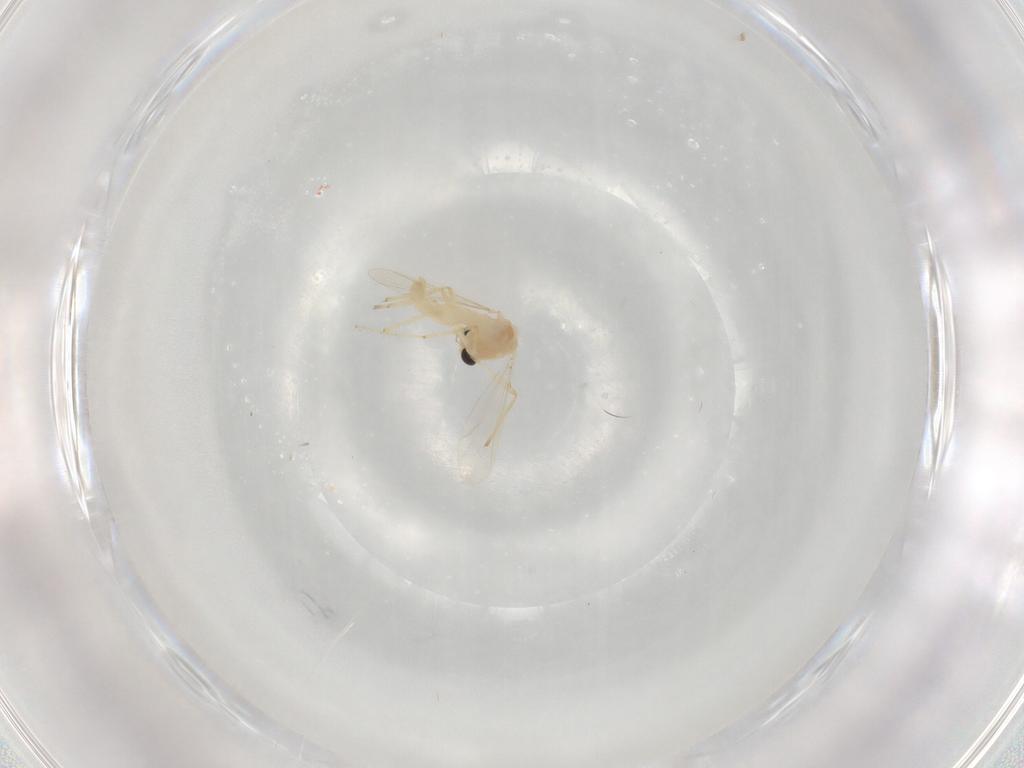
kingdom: Animalia
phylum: Arthropoda
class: Insecta
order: Diptera
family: Chironomidae
